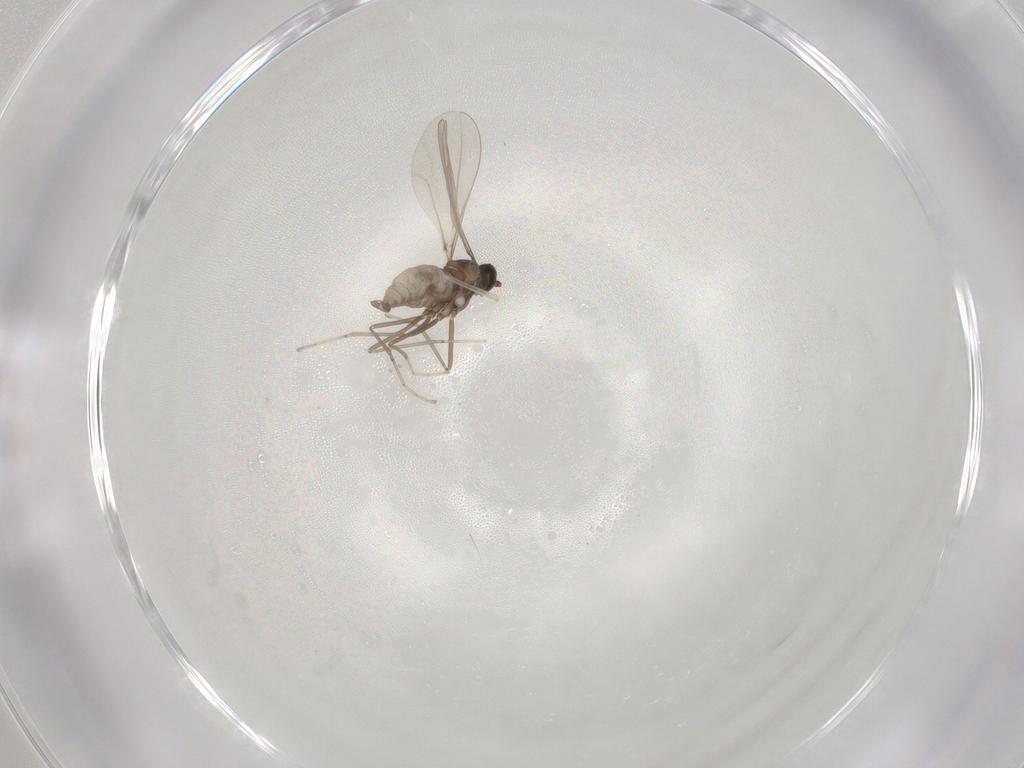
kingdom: Animalia
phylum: Arthropoda
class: Insecta
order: Diptera
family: Cecidomyiidae
